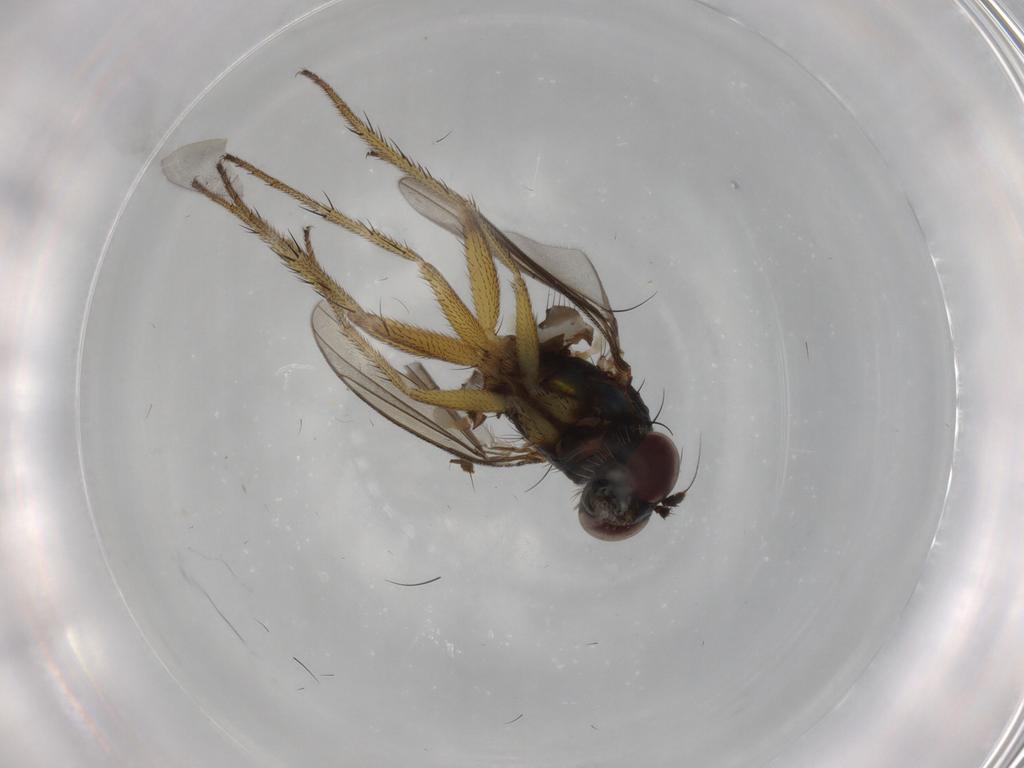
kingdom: Animalia
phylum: Arthropoda
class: Insecta
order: Diptera
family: Dolichopodidae
